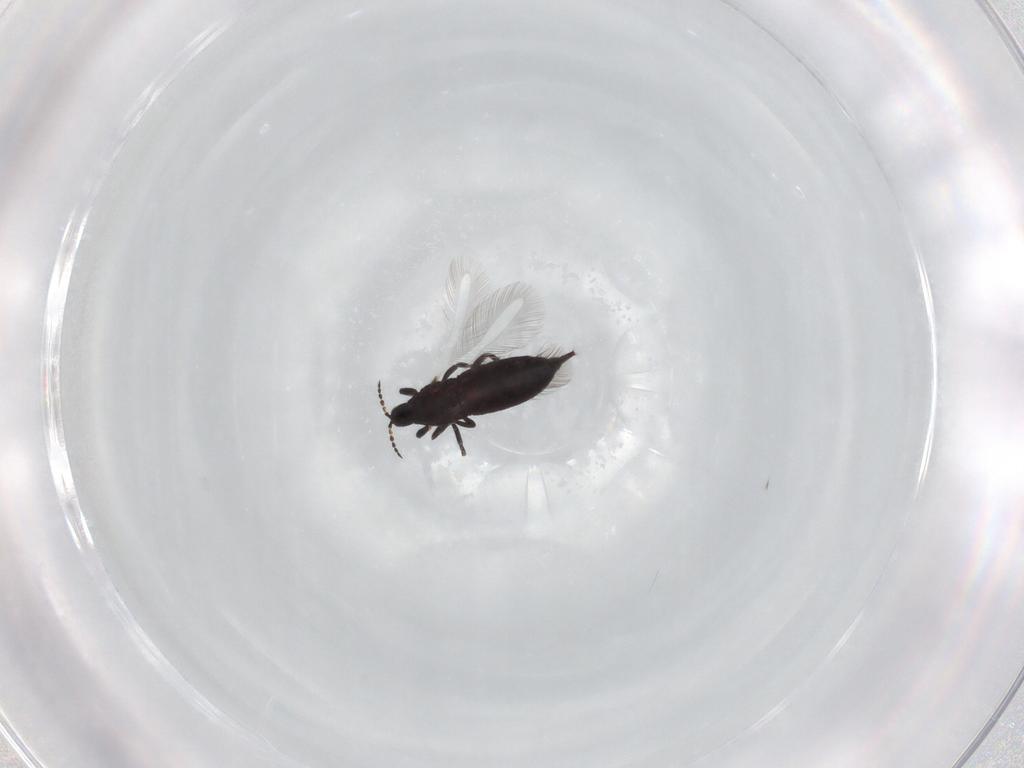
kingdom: Animalia
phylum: Arthropoda
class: Insecta
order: Thysanoptera
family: Phlaeothripidae
